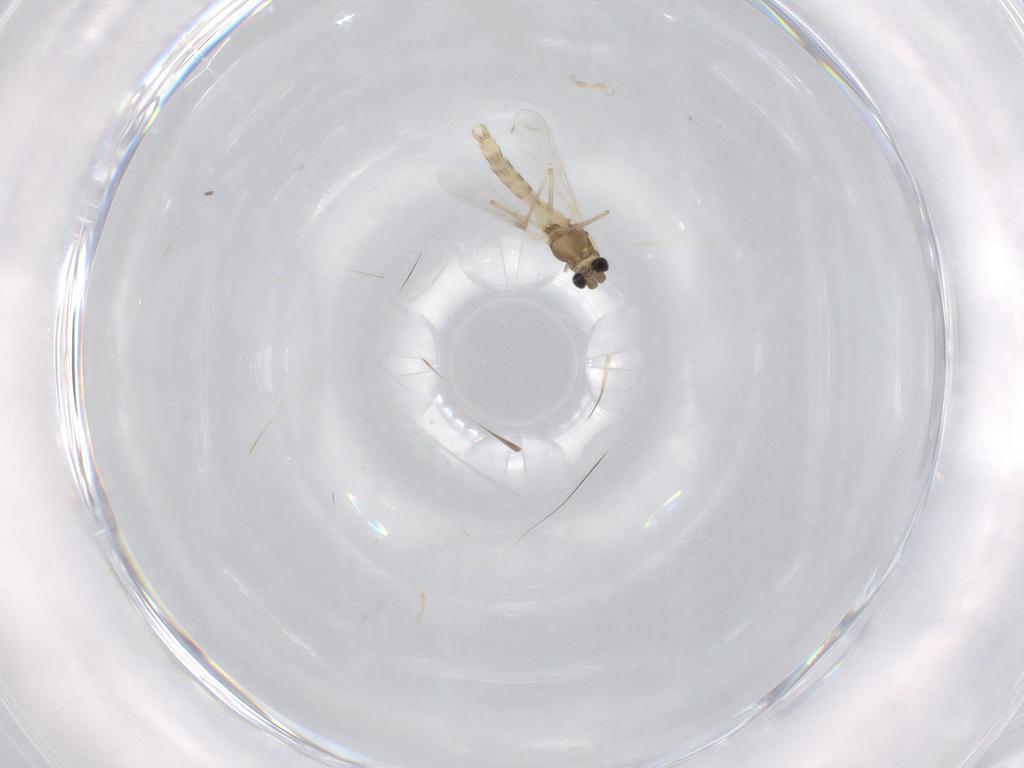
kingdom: Animalia
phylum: Arthropoda
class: Insecta
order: Diptera
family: Chironomidae
